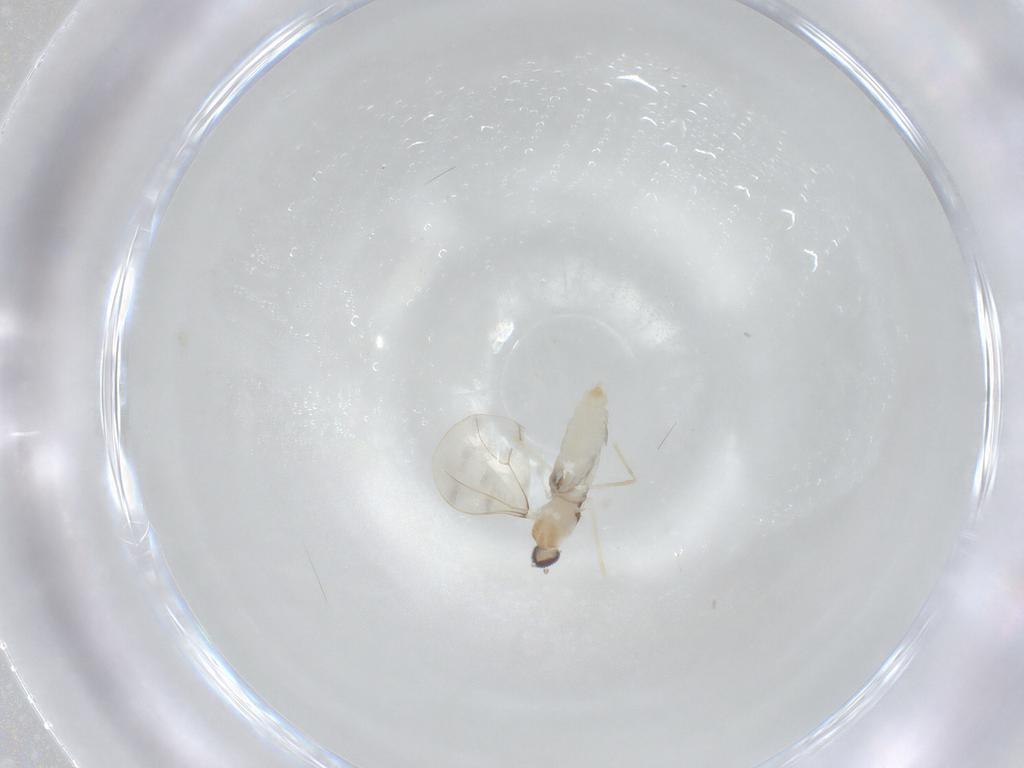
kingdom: Animalia
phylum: Arthropoda
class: Insecta
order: Diptera
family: Cecidomyiidae
